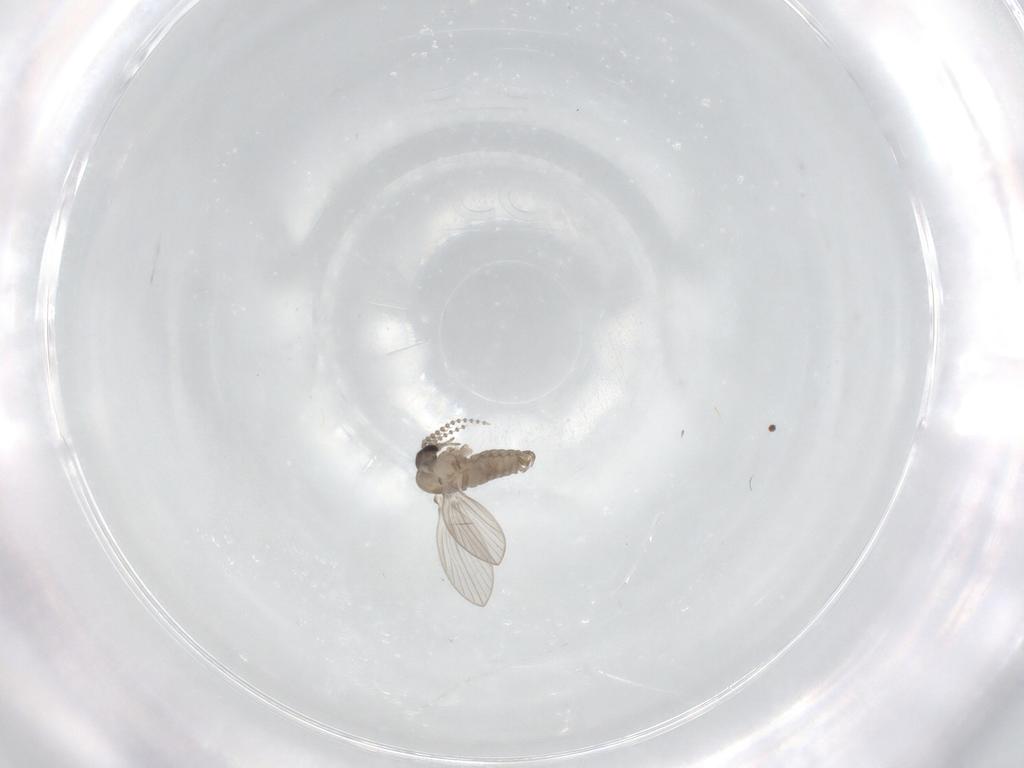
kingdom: Animalia
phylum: Arthropoda
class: Insecta
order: Diptera
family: Psychodidae
